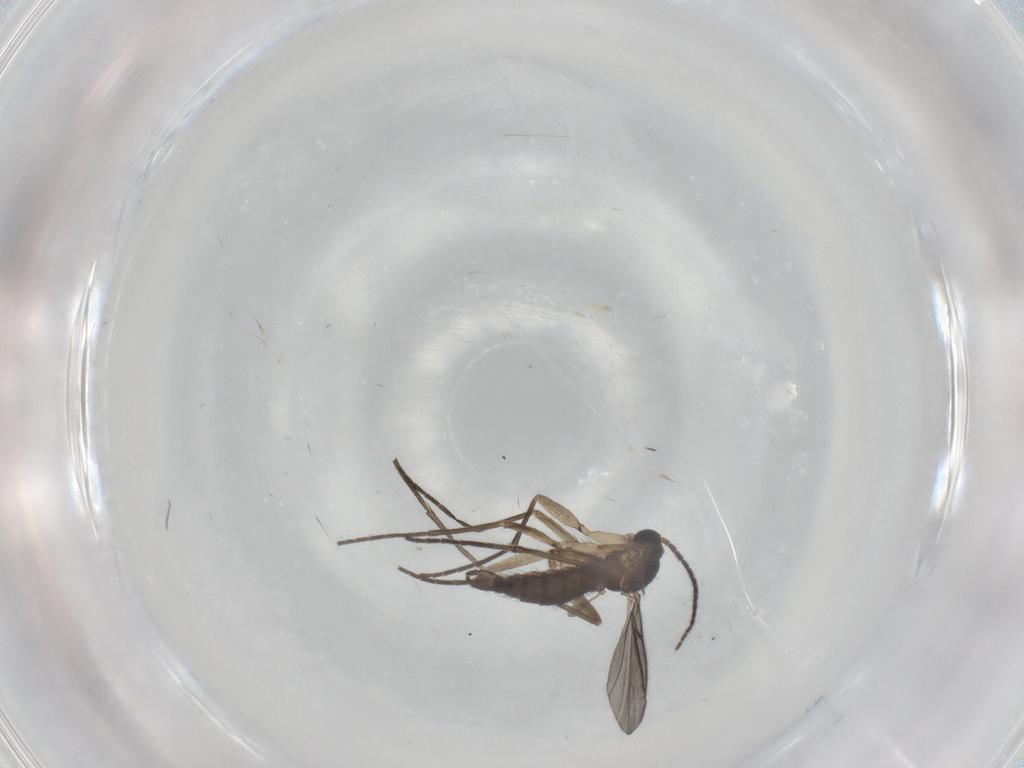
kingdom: Animalia
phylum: Arthropoda
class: Insecta
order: Diptera
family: Sciaridae
